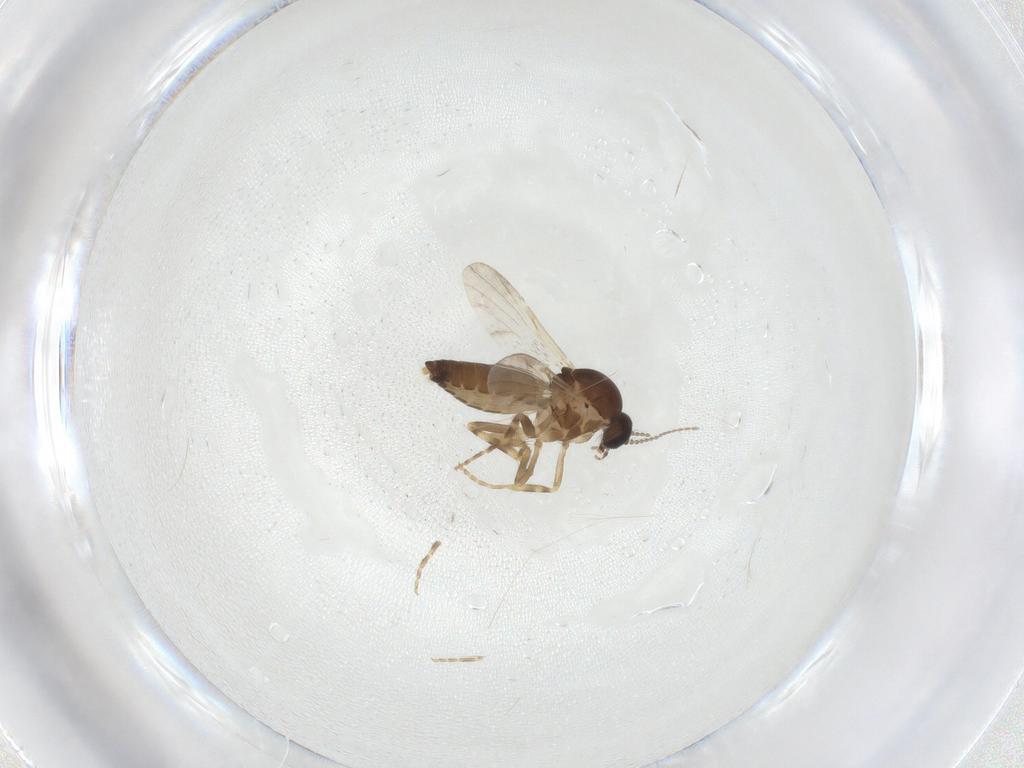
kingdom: Animalia
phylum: Arthropoda
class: Insecta
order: Diptera
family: Ceratopogonidae
